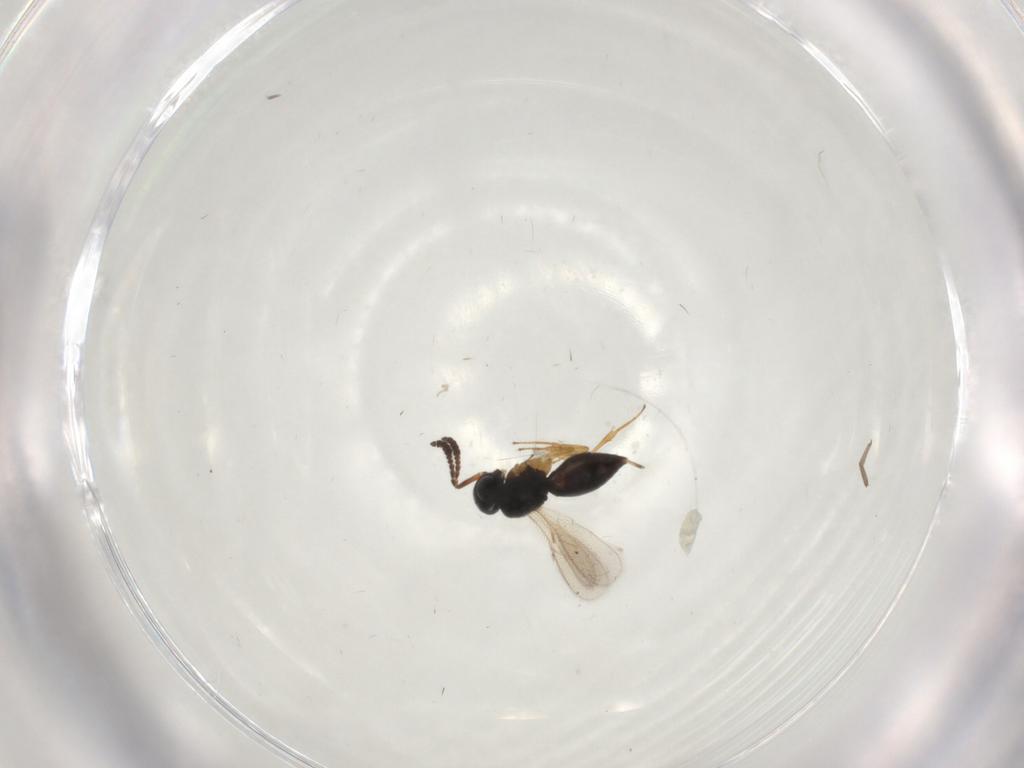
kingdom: Animalia
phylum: Arthropoda
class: Insecta
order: Hymenoptera
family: Scelionidae
